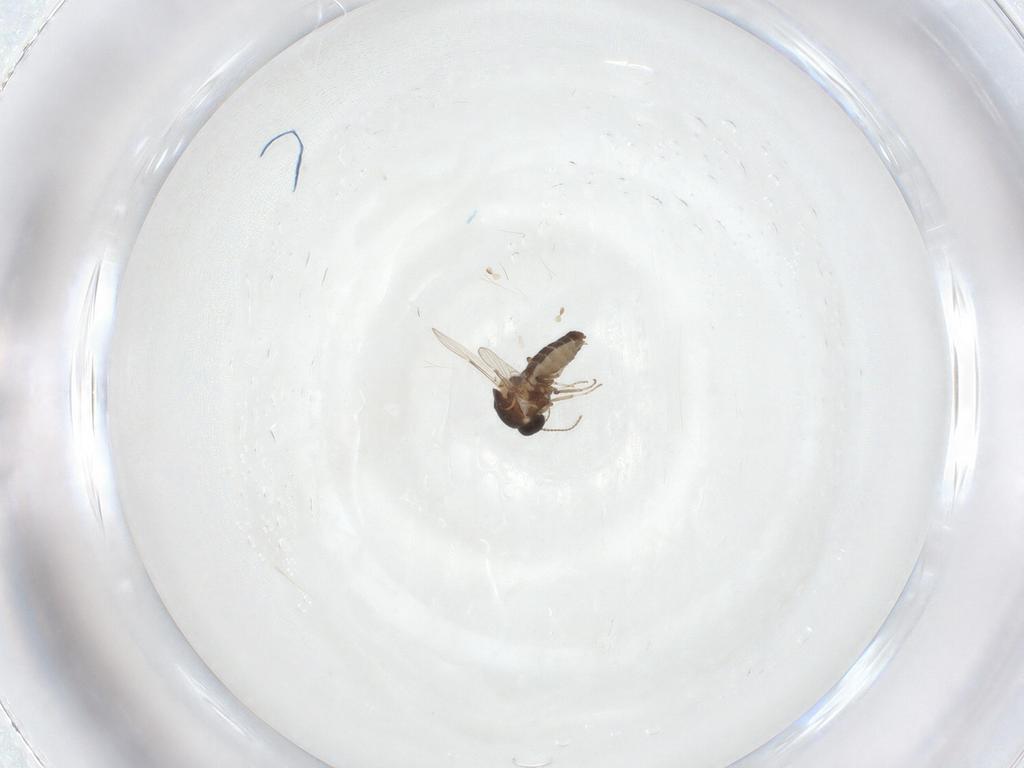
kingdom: Animalia
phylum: Arthropoda
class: Insecta
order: Diptera
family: Ceratopogonidae
